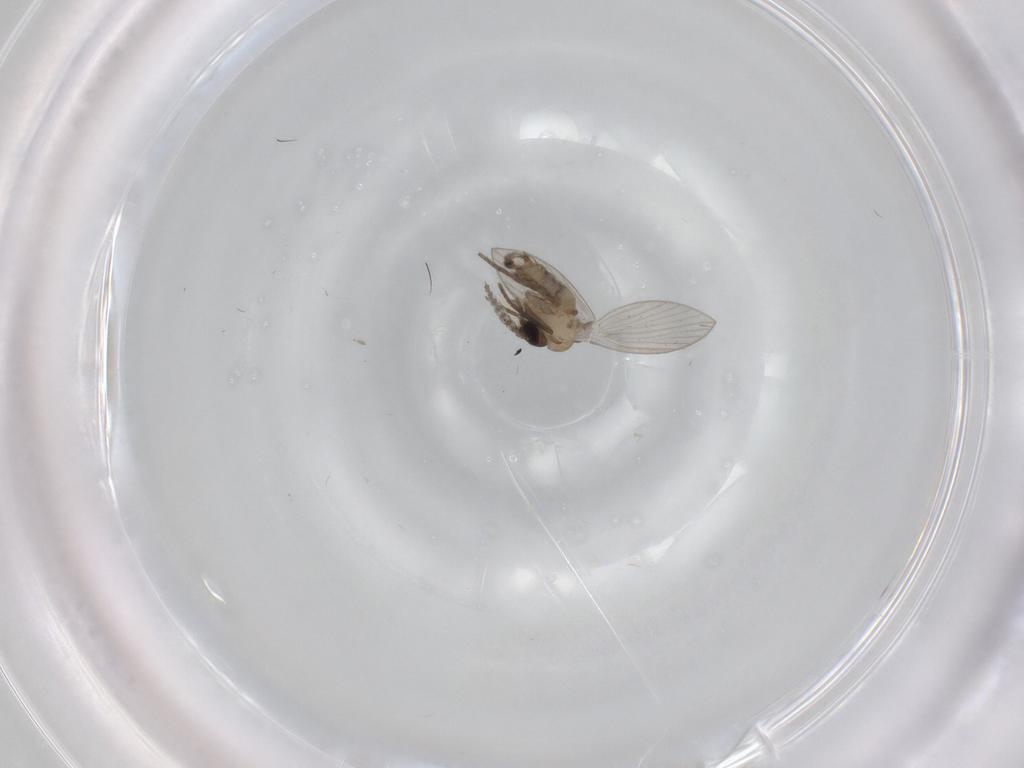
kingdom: Animalia
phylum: Arthropoda
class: Insecta
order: Diptera
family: Psychodidae
